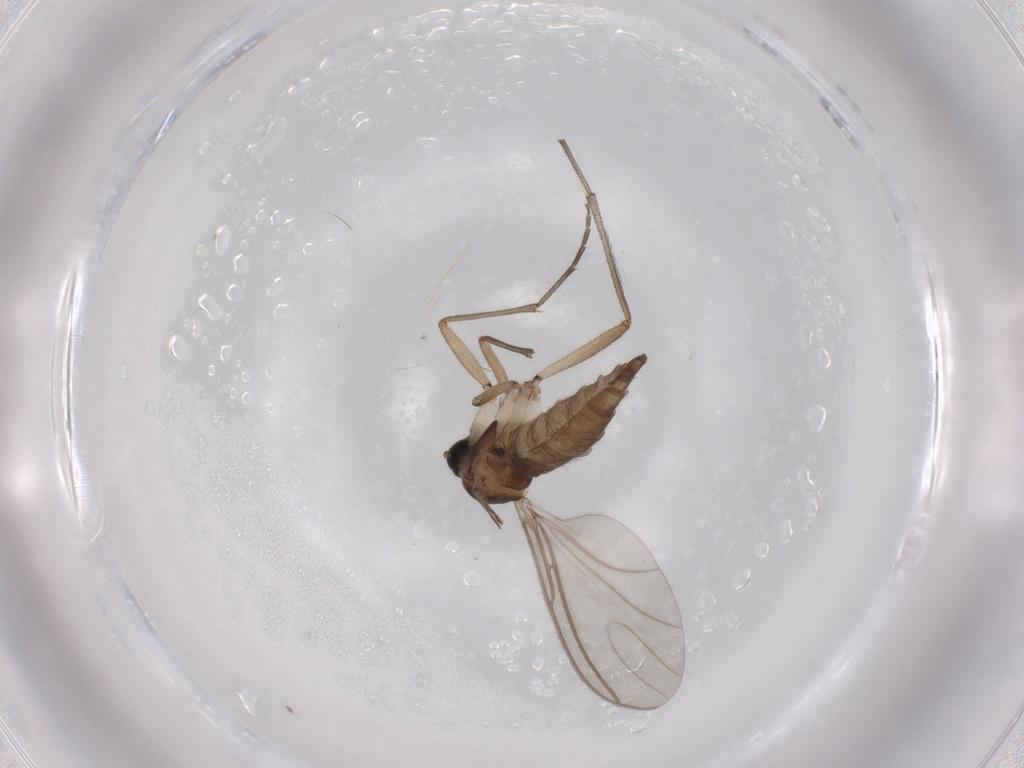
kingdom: Animalia
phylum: Arthropoda
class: Insecta
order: Diptera
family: Sciaridae
